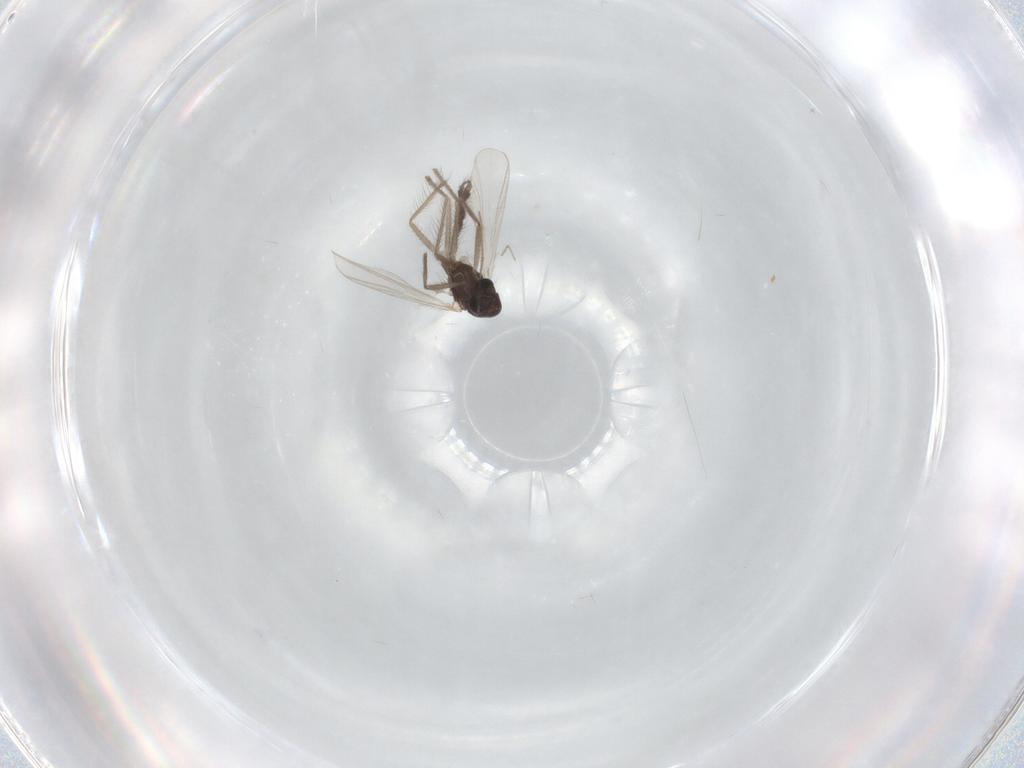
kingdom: Animalia
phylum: Arthropoda
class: Insecta
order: Diptera
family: Chironomidae
